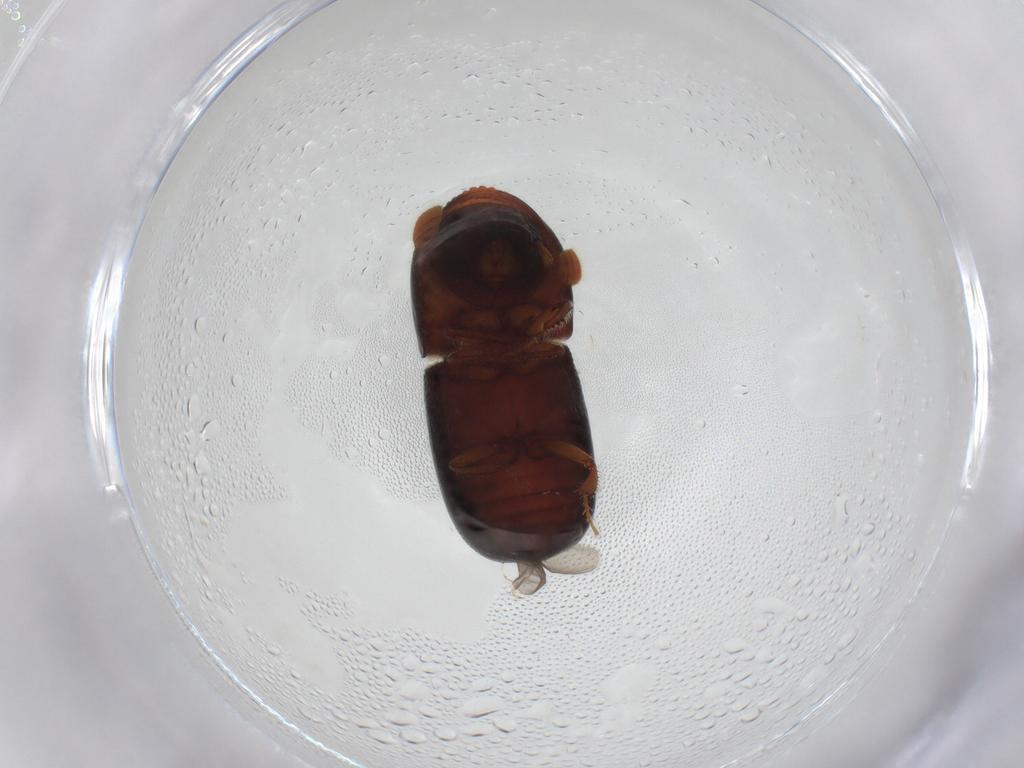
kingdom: Animalia
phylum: Arthropoda
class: Insecta
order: Coleoptera
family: Curculionidae
